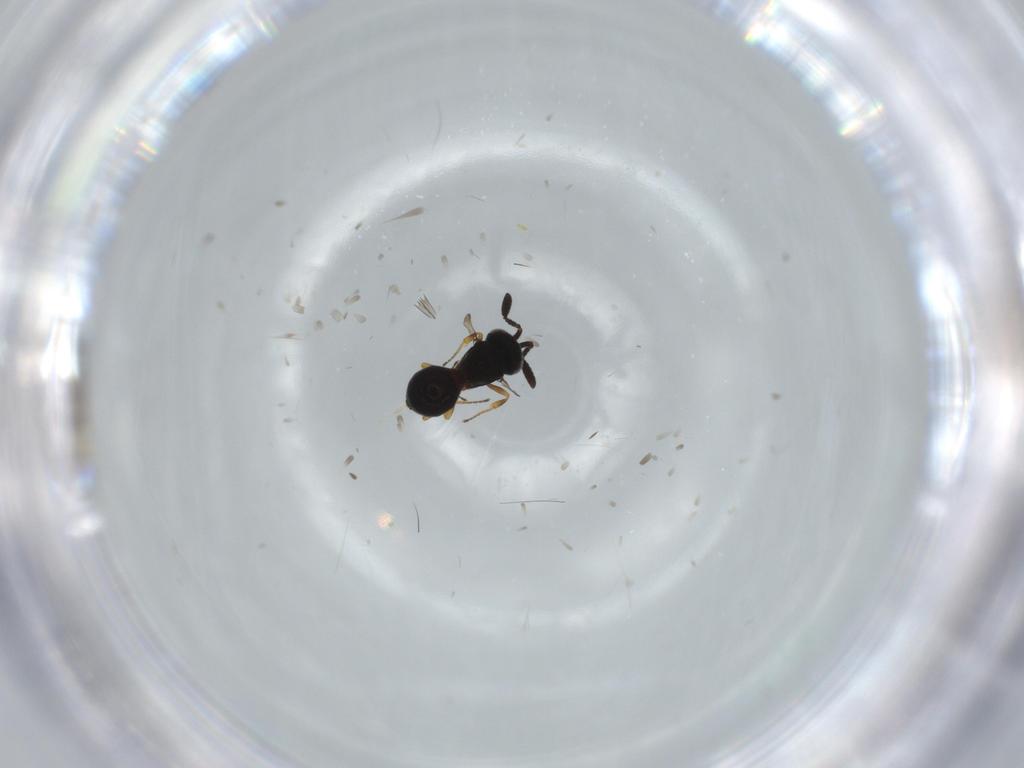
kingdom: Animalia
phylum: Arthropoda
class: Insecta
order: Hymenoptera
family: Scelionidae
